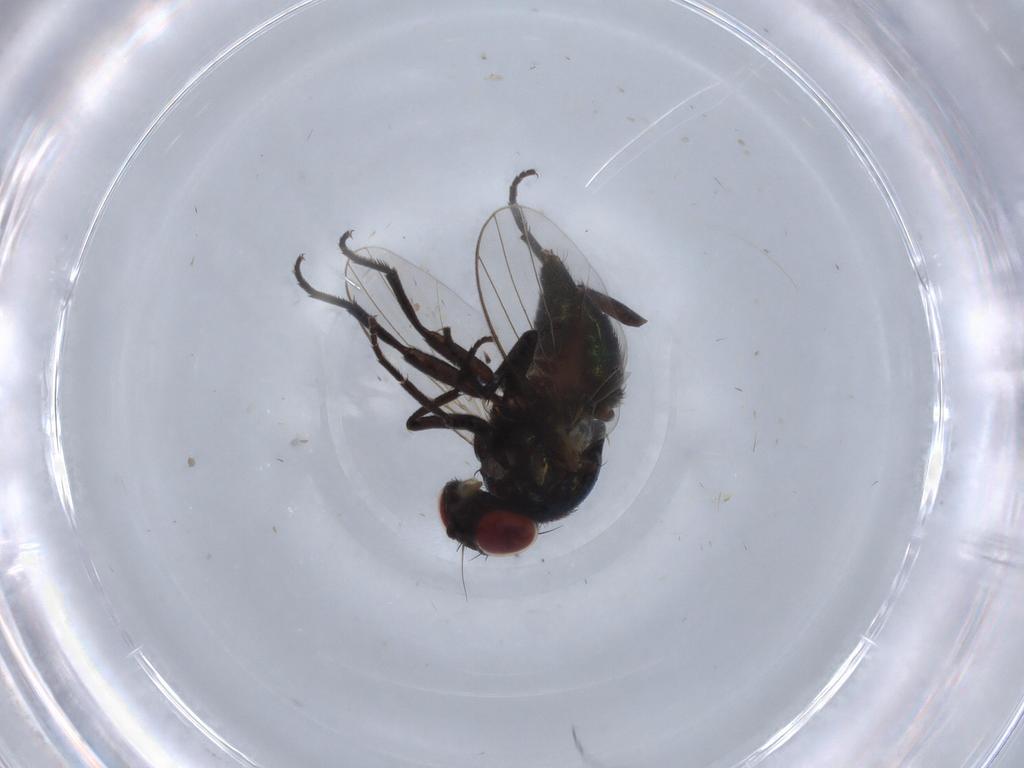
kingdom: Animalia
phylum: Arthropoda
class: Insecta
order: Diptera
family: Agromyzidae
